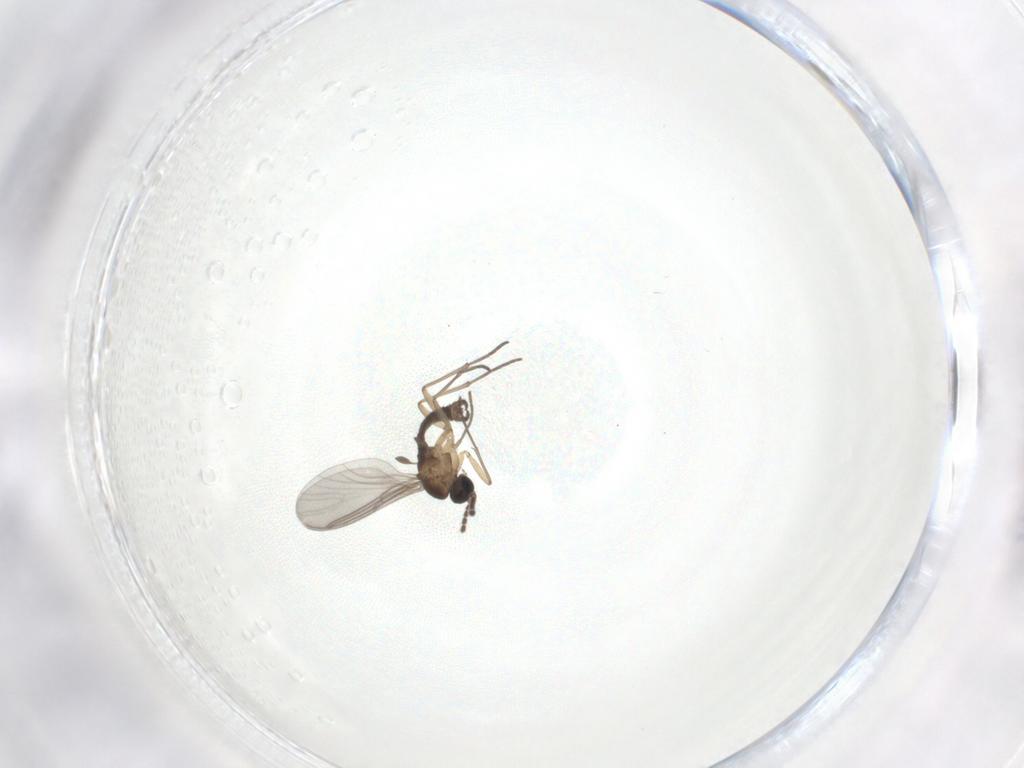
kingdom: Animalia
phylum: Arthropoda
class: Insecta
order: Diptera
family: Sciaridae
